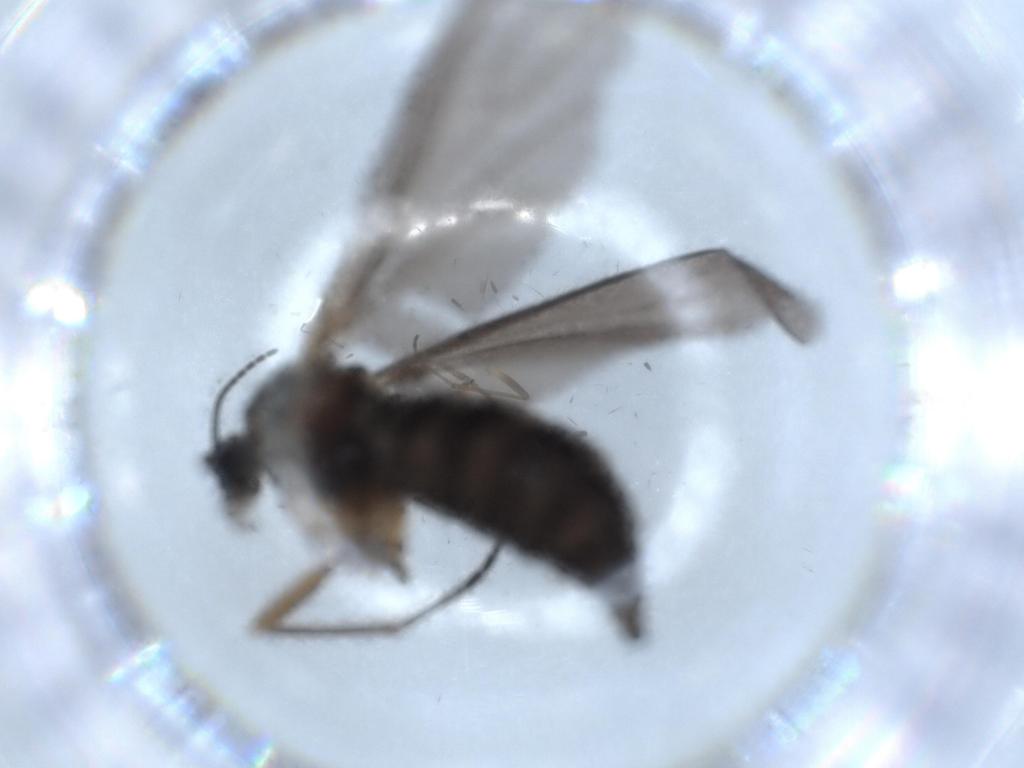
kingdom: Animalia
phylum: Arthropoda
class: Insecta
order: Diptera
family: Sciaridae
